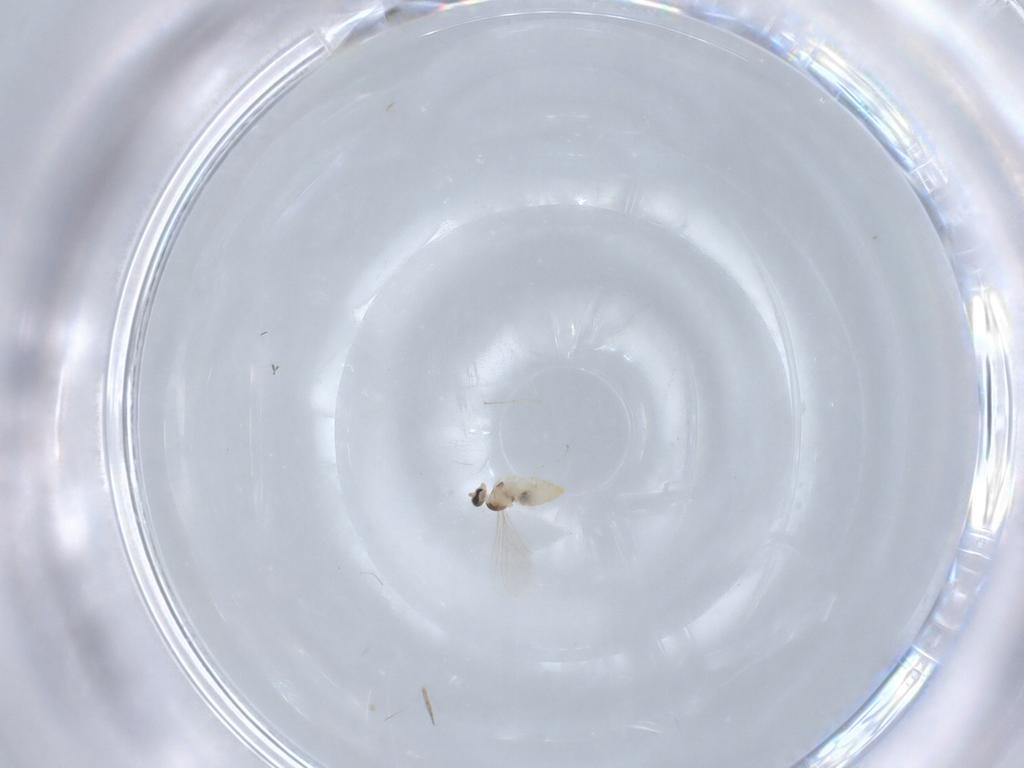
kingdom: Animalia
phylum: Arthropoda
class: Insecta
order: Diptera
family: Cecidomyiidae
